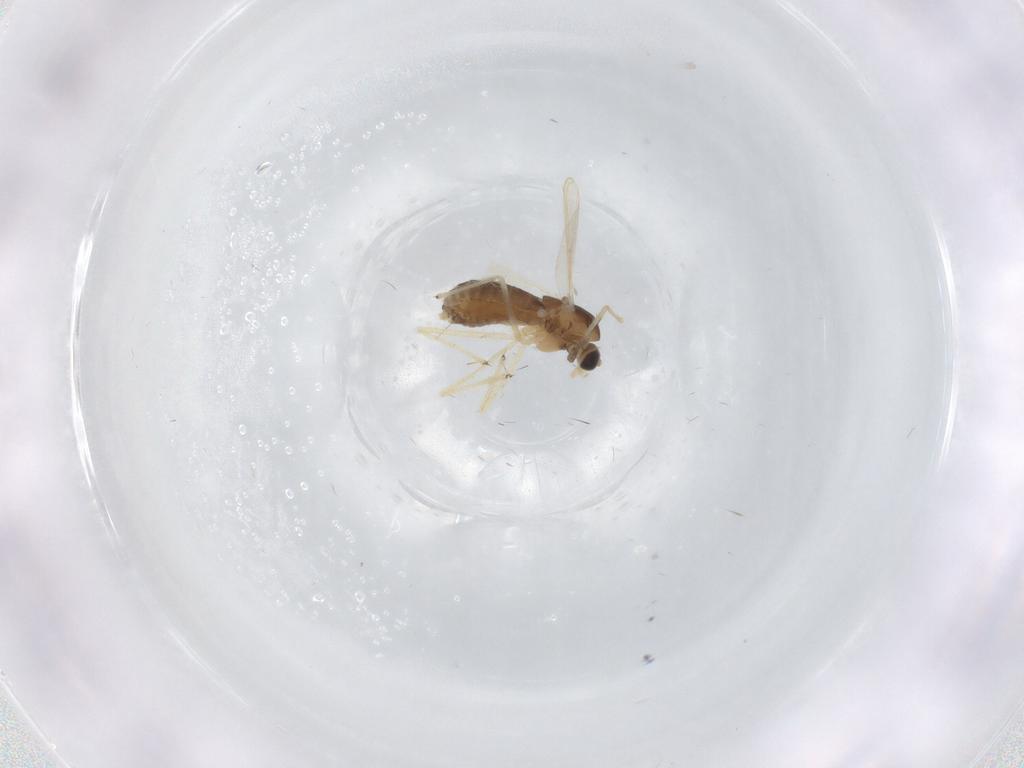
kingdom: Animalia
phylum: Arthropoda
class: Insecta
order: Diptera
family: Chironomidae
